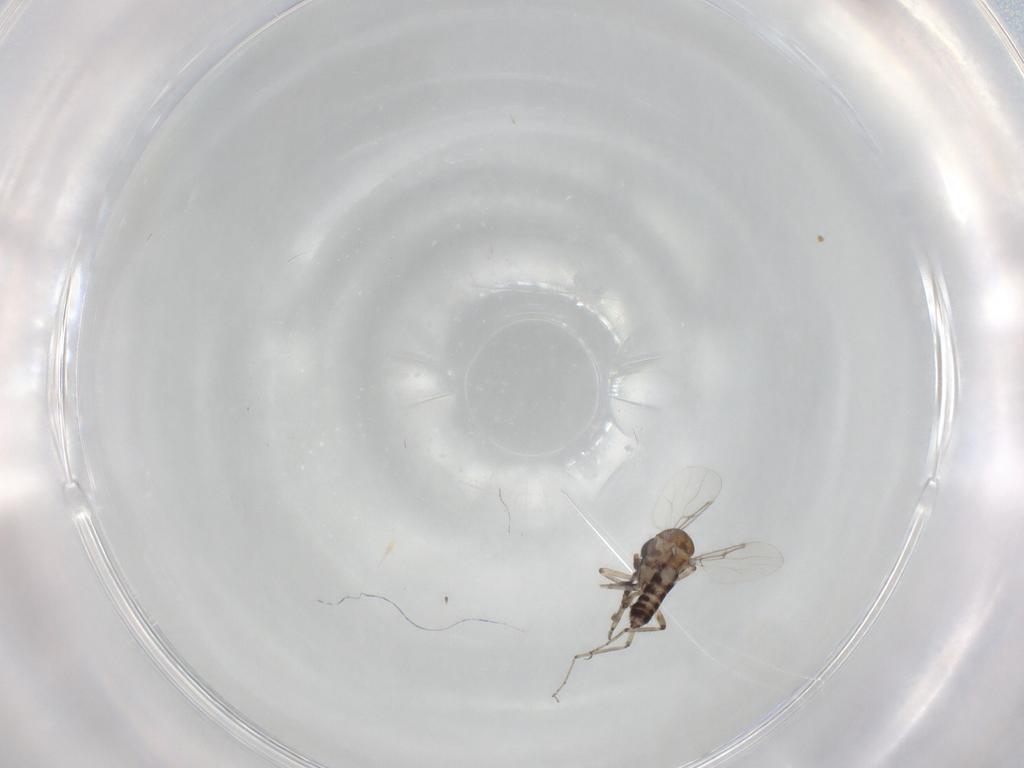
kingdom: Animalia
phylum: Arthropoda
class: Insecta
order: Diptera
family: Psychodidae
